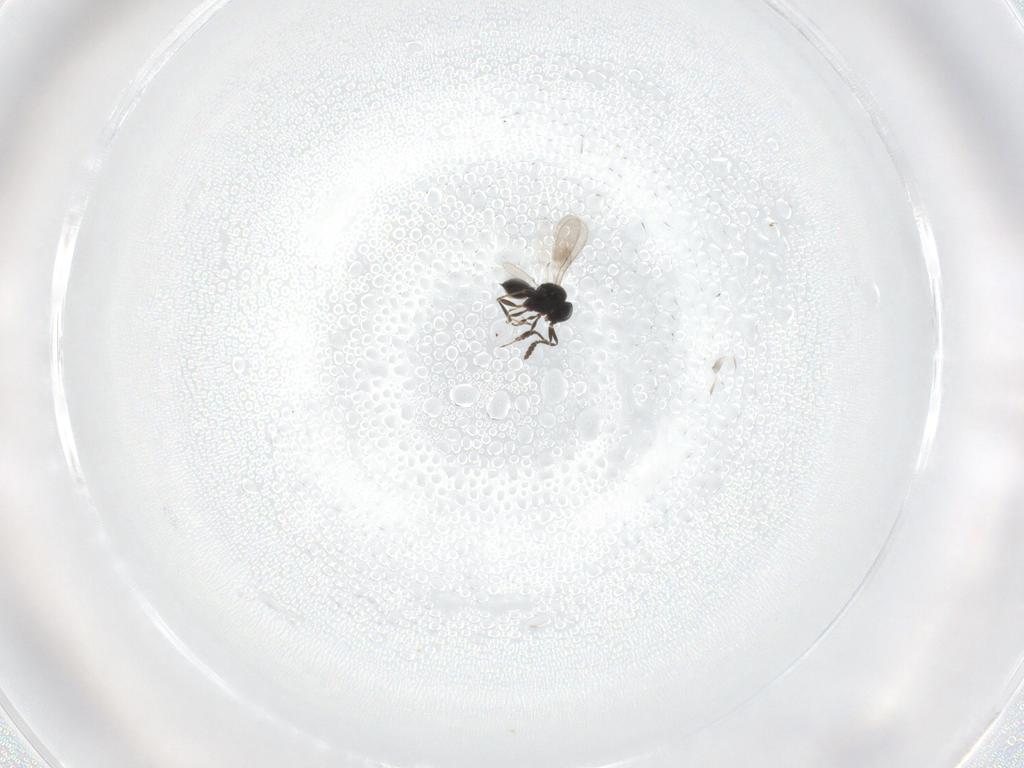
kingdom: Animalia
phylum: Arthropoda
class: Insecta
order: Hymenoptera
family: Scelionidae
